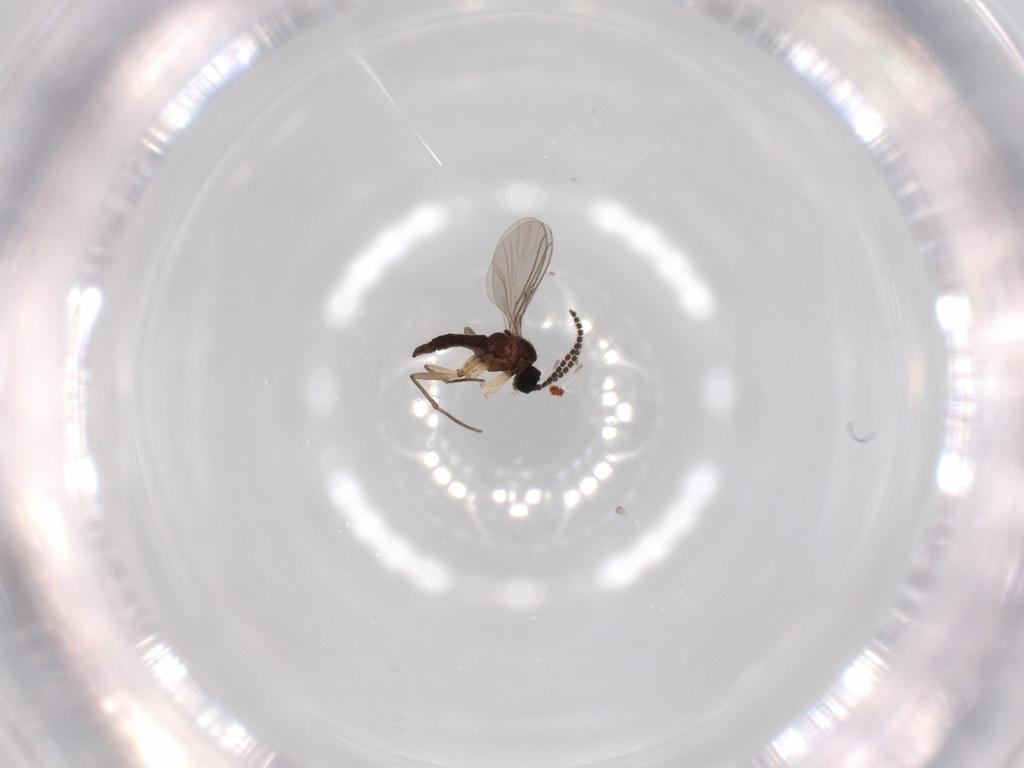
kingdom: Animalia
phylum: Arthropoda
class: Insecta
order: Diptera
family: Sciaridae
